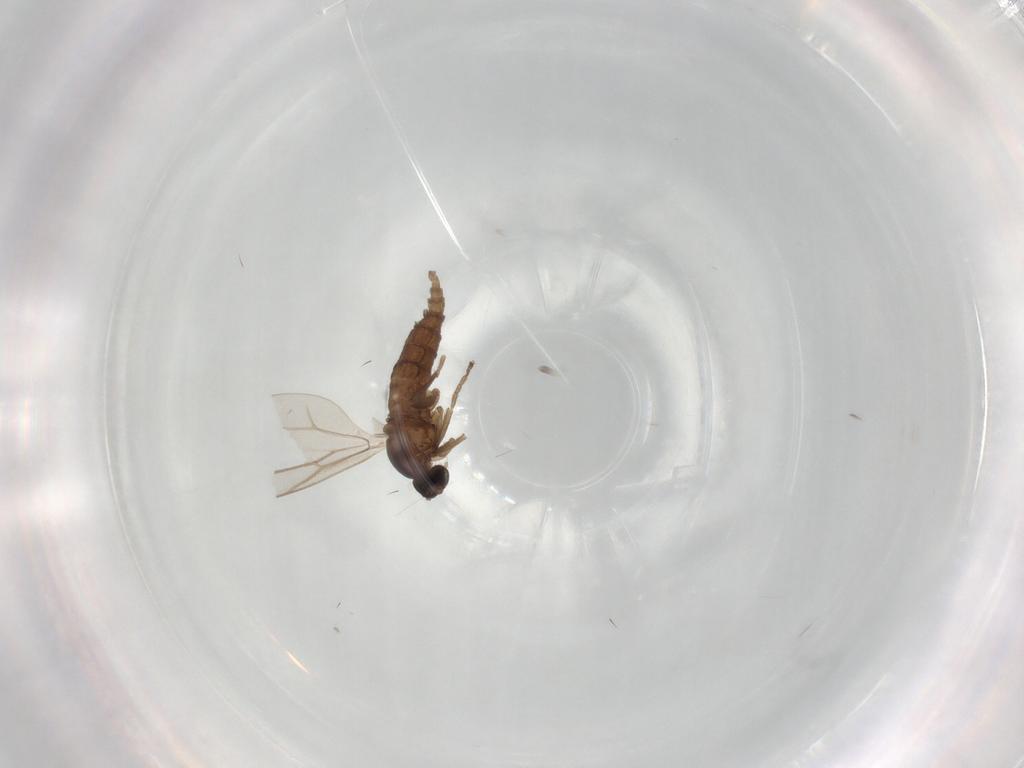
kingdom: Animalia
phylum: Arthropoda
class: Insecta
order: Diptera
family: Cecidomyiidae
